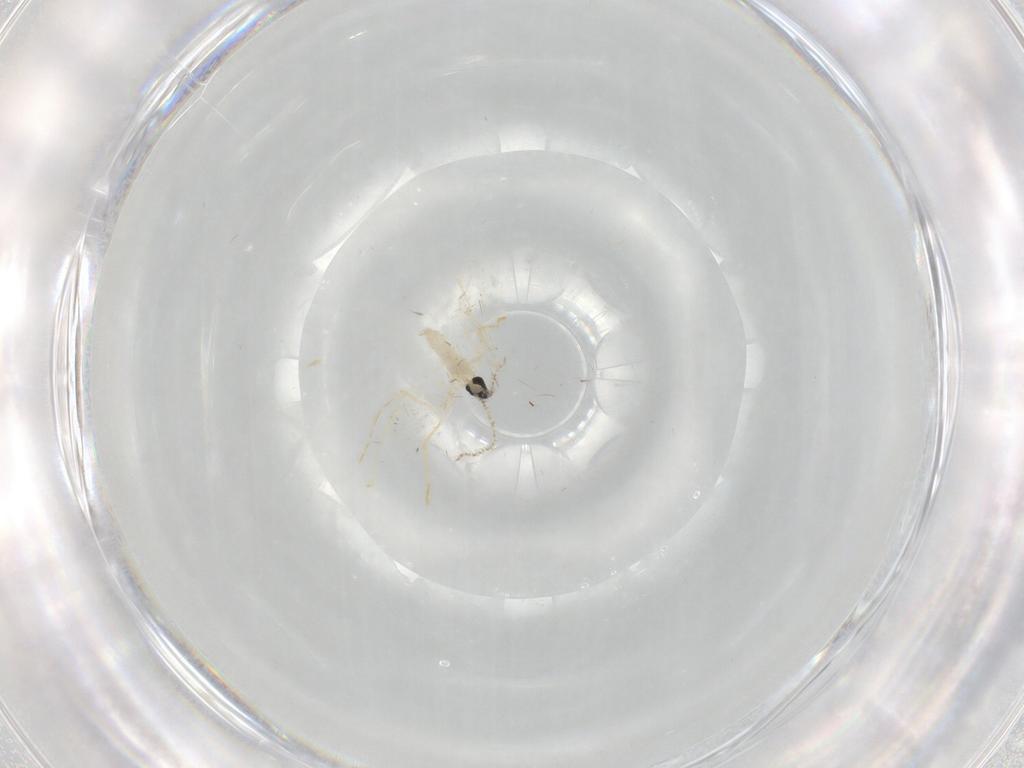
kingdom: Animalia
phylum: Arthropoda
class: Insecta
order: Diptera
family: Cecidomyiidae
